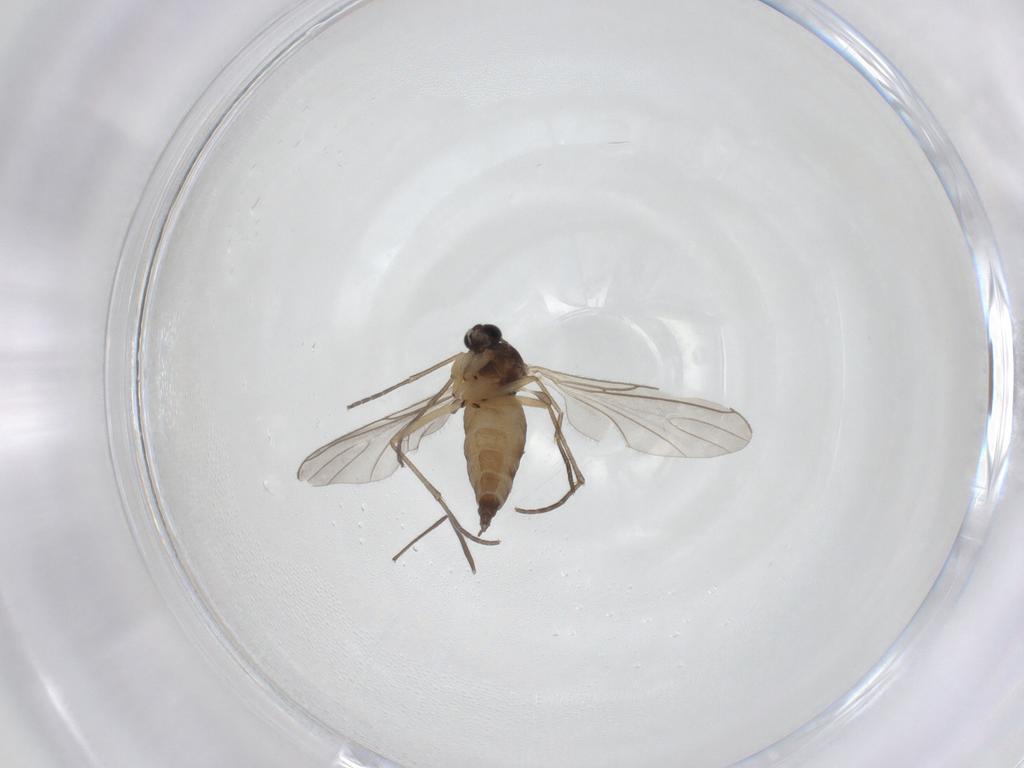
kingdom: Animalia
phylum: Arthropoda
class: Insecta
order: Diptera
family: Sciaridae
